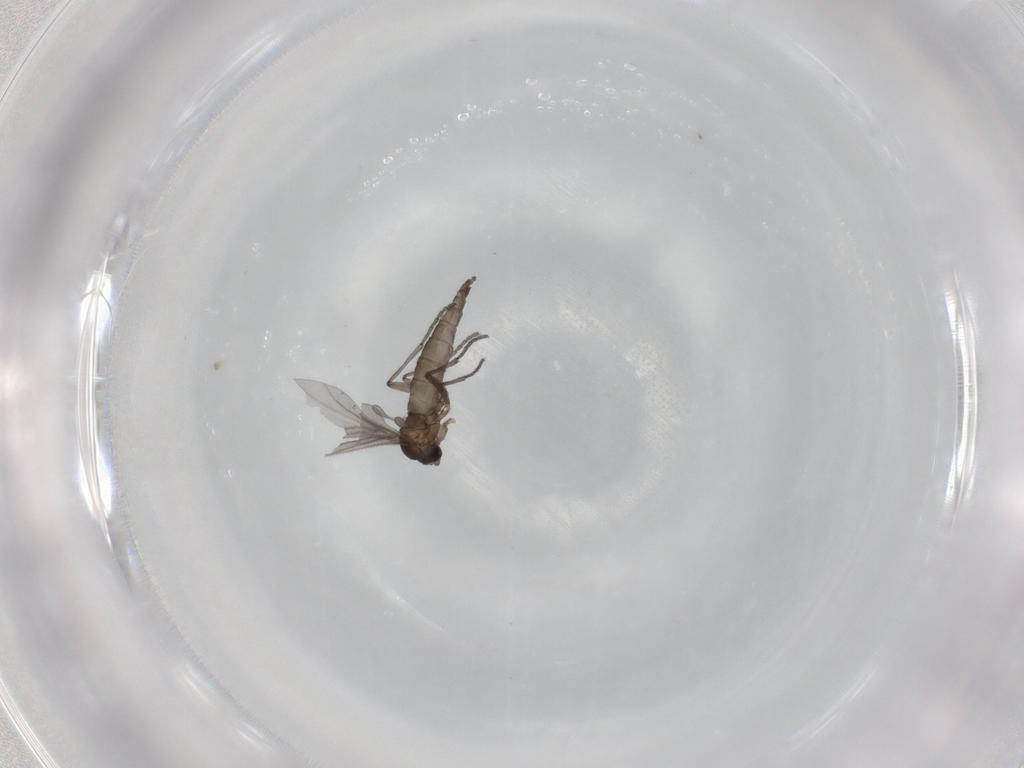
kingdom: Animalia
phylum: Arthropoda
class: Insecta
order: Diptera
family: Sciaridae
